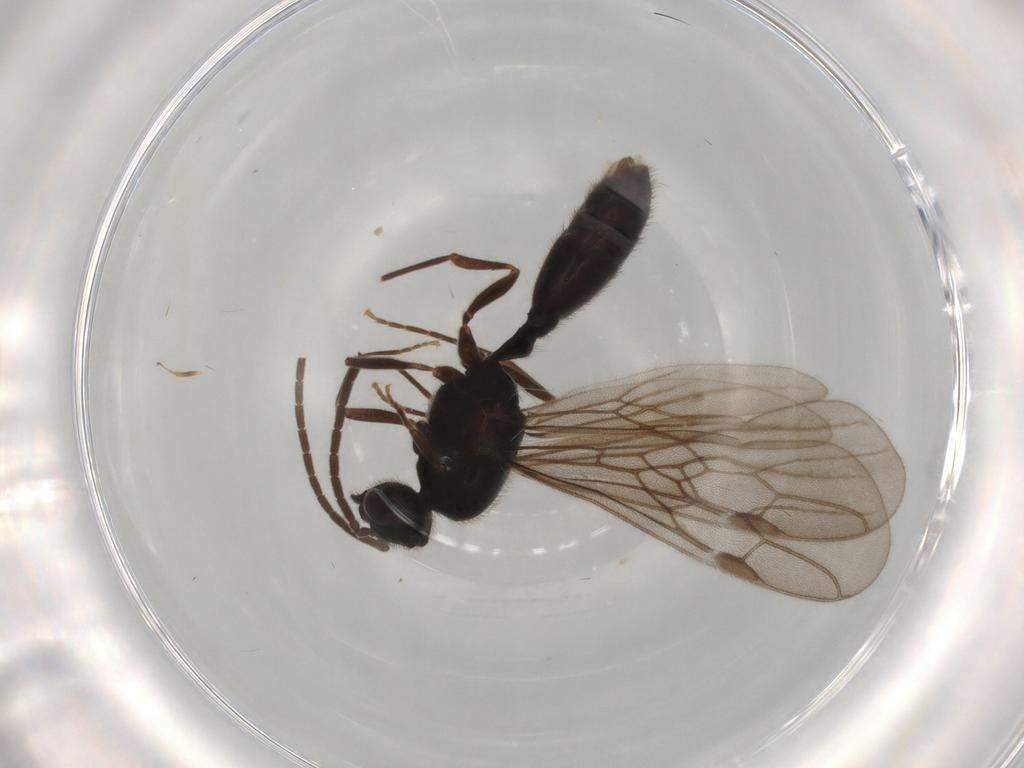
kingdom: Animalia
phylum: Arthropoda
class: Insecta
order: Hymenoptera
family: Formicidae
